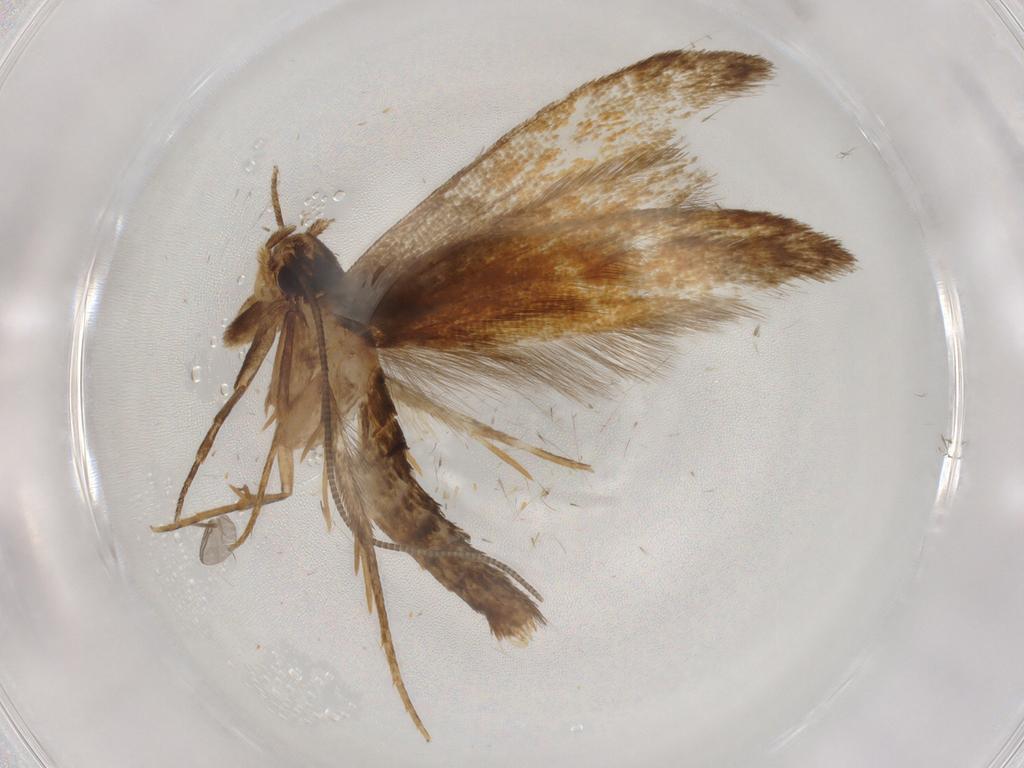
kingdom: Animalia
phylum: Arthropoda
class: Insecta
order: Lepidoptera
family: Tineidae
